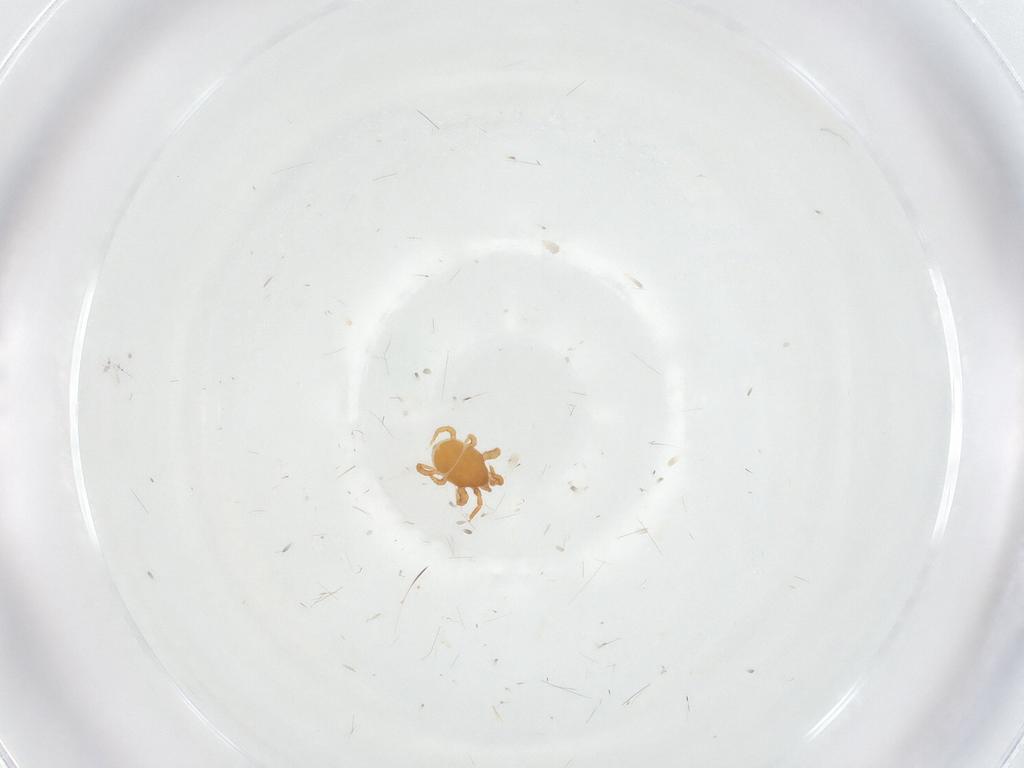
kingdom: Animalia
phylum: Arthropoda
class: Arachnida
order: Mesostigmata
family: Parasitidae
